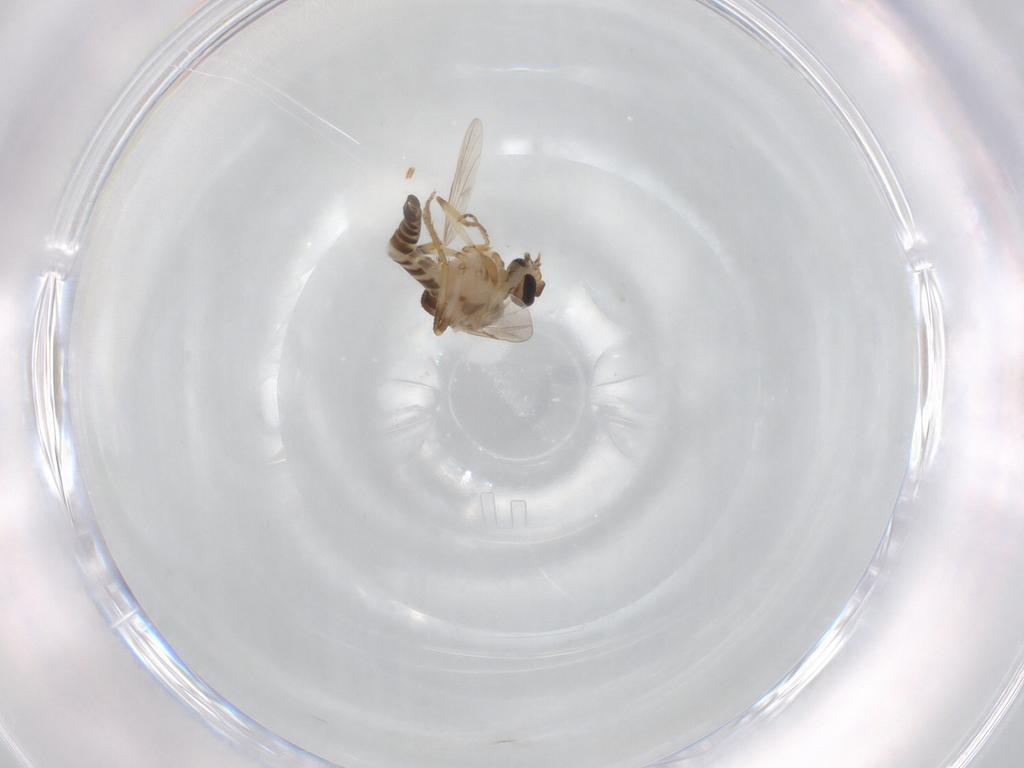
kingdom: Animalia
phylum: Arthropoda
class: Insecta
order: Diptera
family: Ceratopogonidae
